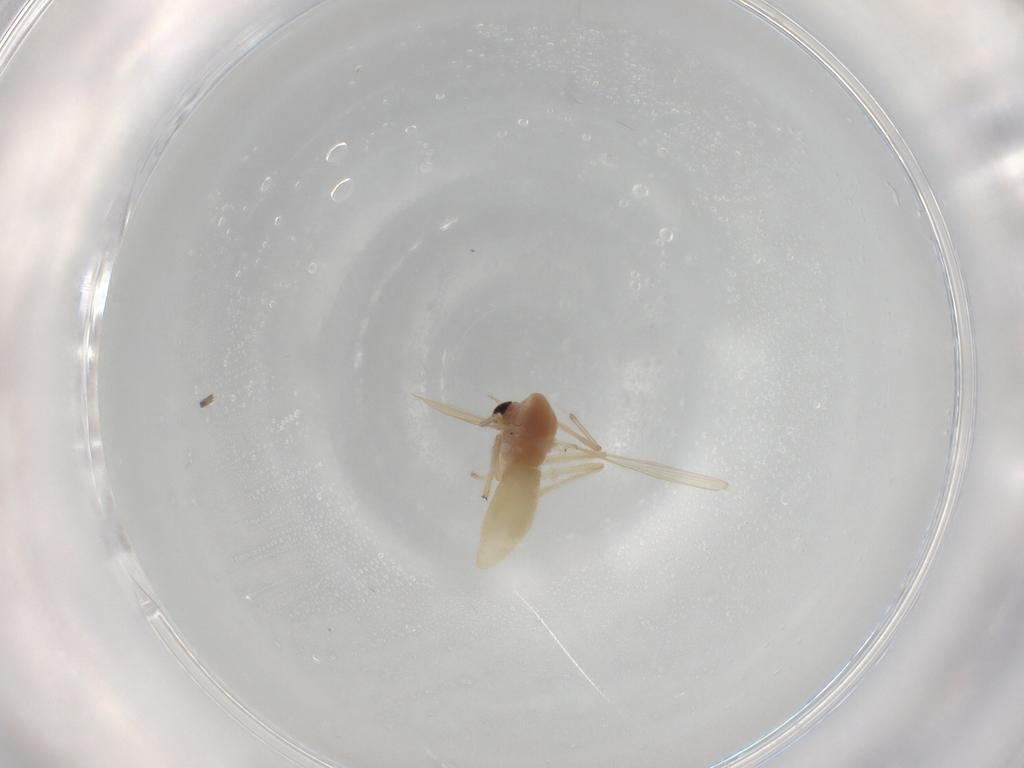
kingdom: Animalia
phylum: Arthropoda
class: Insecta
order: Diptera
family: Chironomidae
